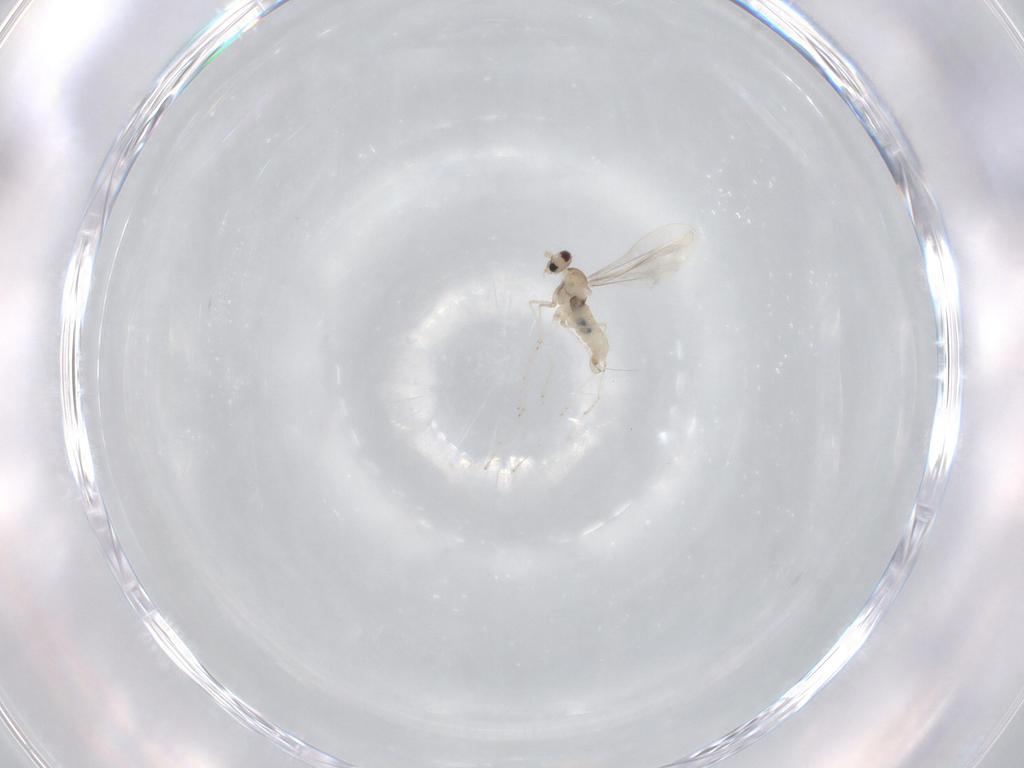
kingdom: Animalia
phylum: Arthropoda
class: Insecta
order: Diptera
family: Cecidomyiidae
